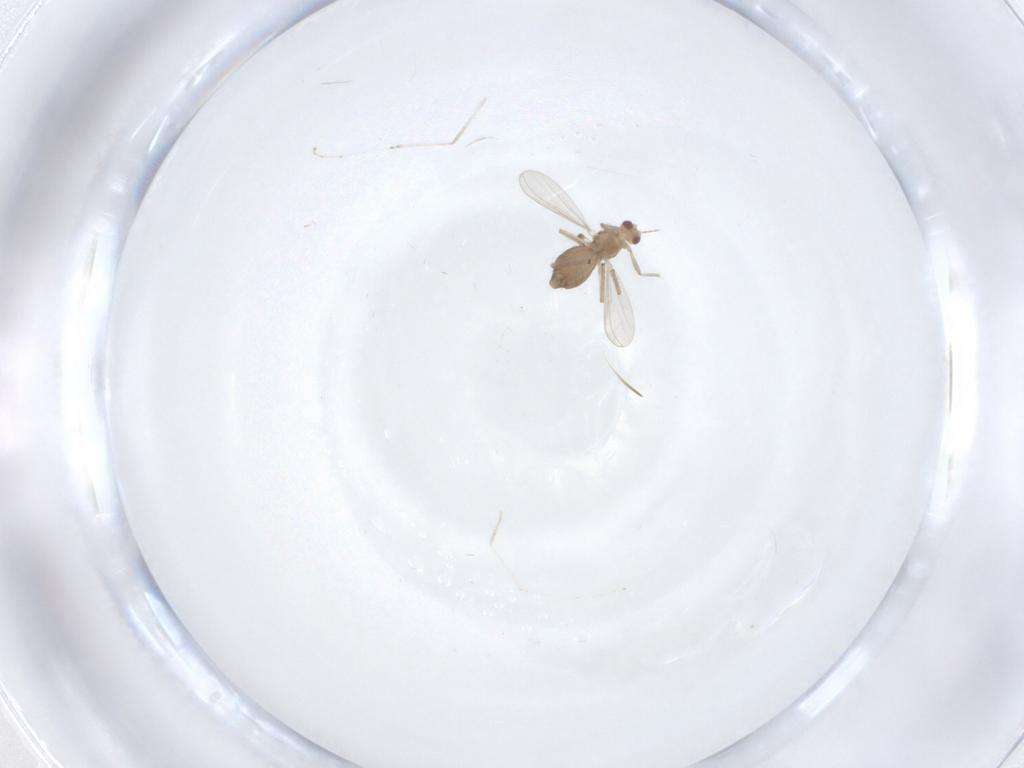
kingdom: Animalia
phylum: Arthropoda
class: Insecta
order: Diptera
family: Chironomidae
